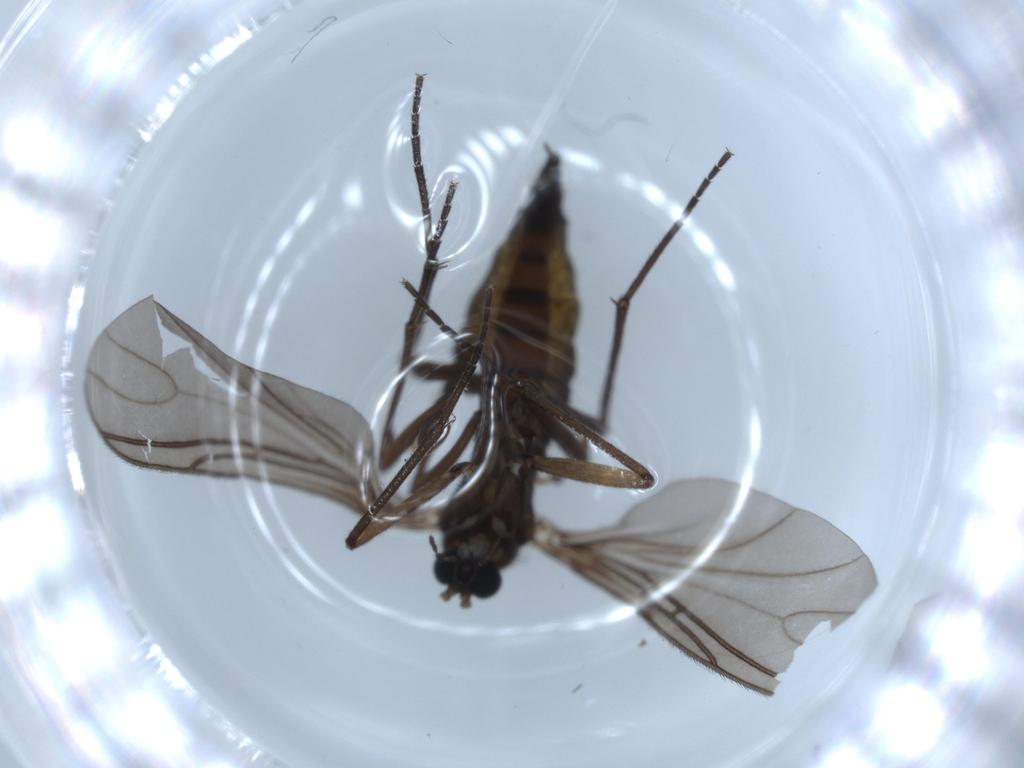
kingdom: Animalia
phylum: Arthropoda
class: Insecta
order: Diptera
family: Sciaridae
